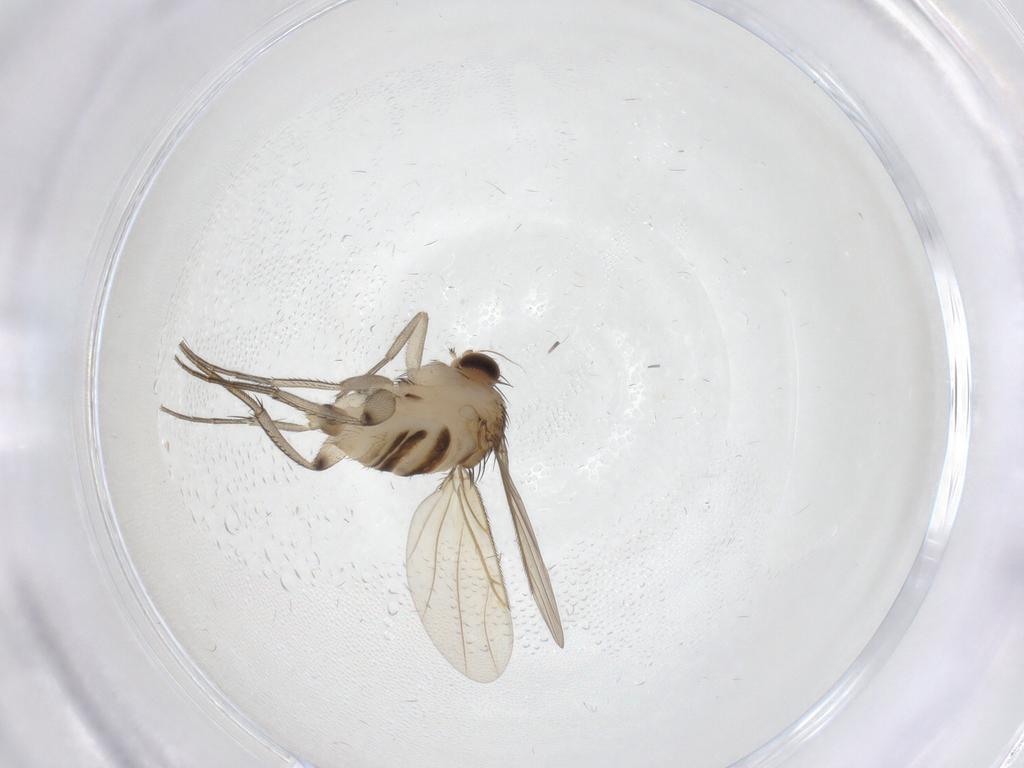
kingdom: Animalia
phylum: Arthropoda
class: Insecta
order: Diptera
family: Phoridae
